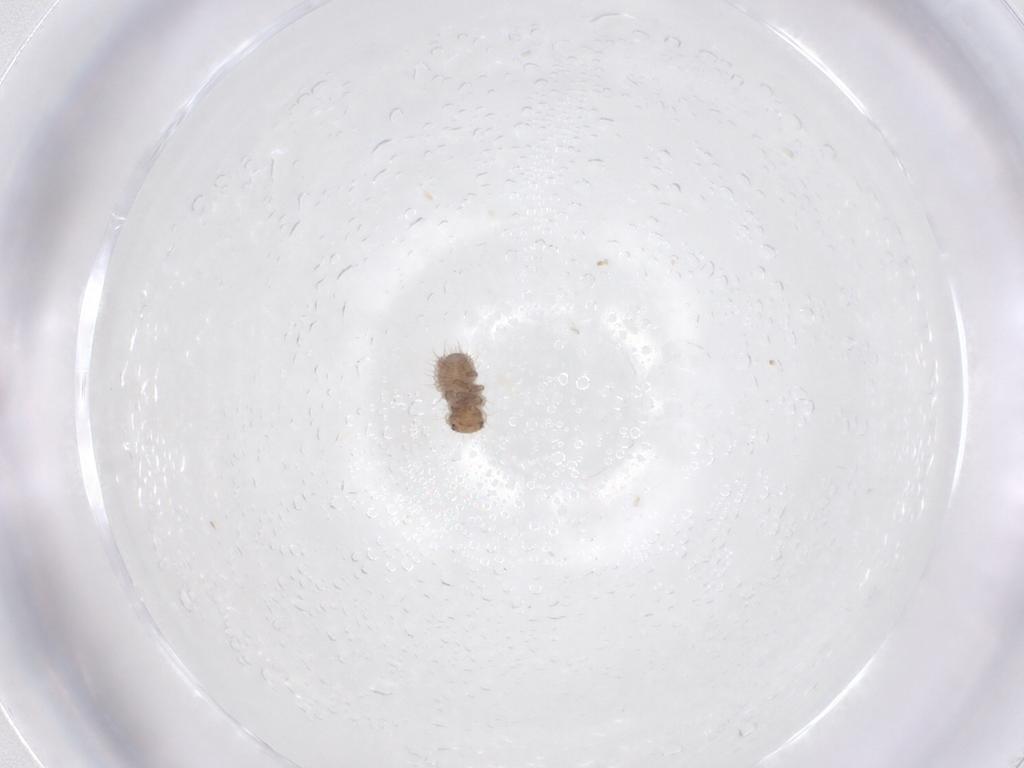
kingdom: Animalia
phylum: Arthropoda
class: Insecta
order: Coleoptera
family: Coccinellidae
